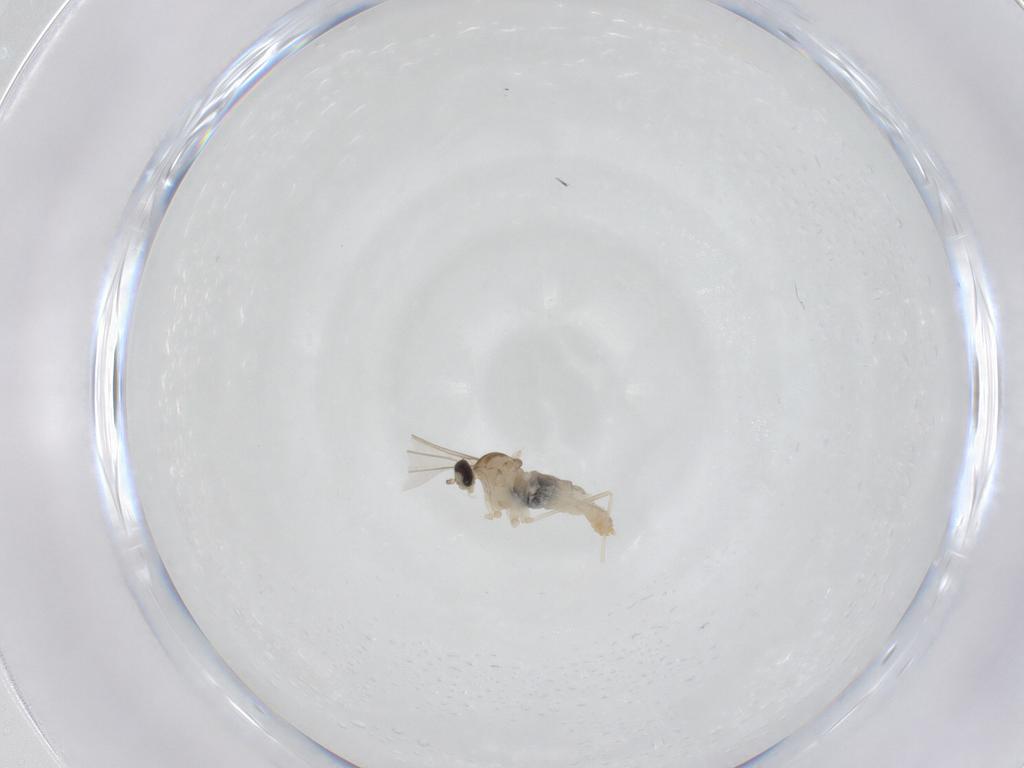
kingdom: Animalia
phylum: Arthropoda
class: Insecta
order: Diptera
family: Cecidomyiidae
